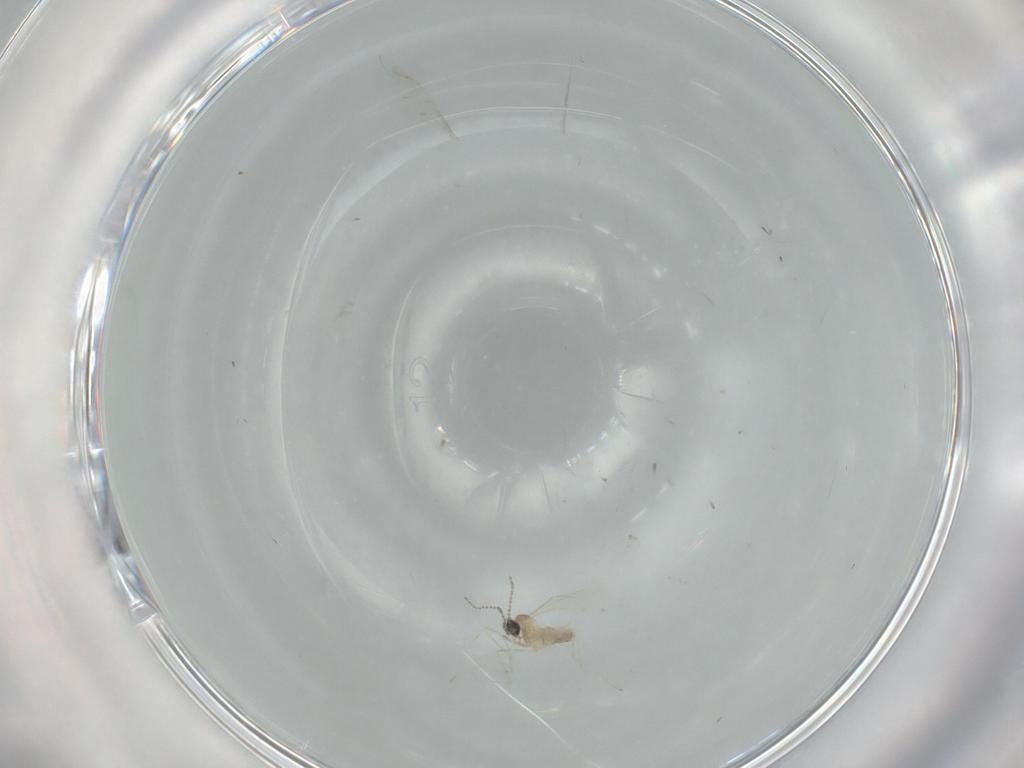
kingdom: Animalia
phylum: Arthropoda
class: Insecta
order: Diptera
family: Cecidomyiidae
